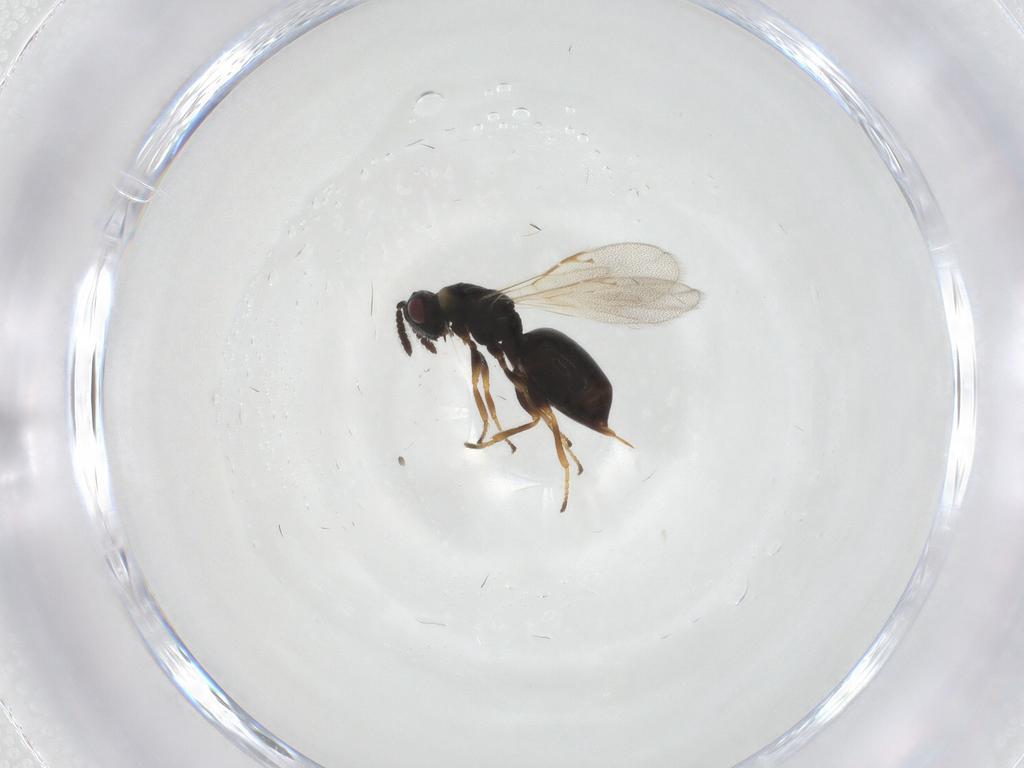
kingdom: Animalia
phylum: Arthropoda
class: Insecta
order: Hymenoptera
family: Eurytomidae
